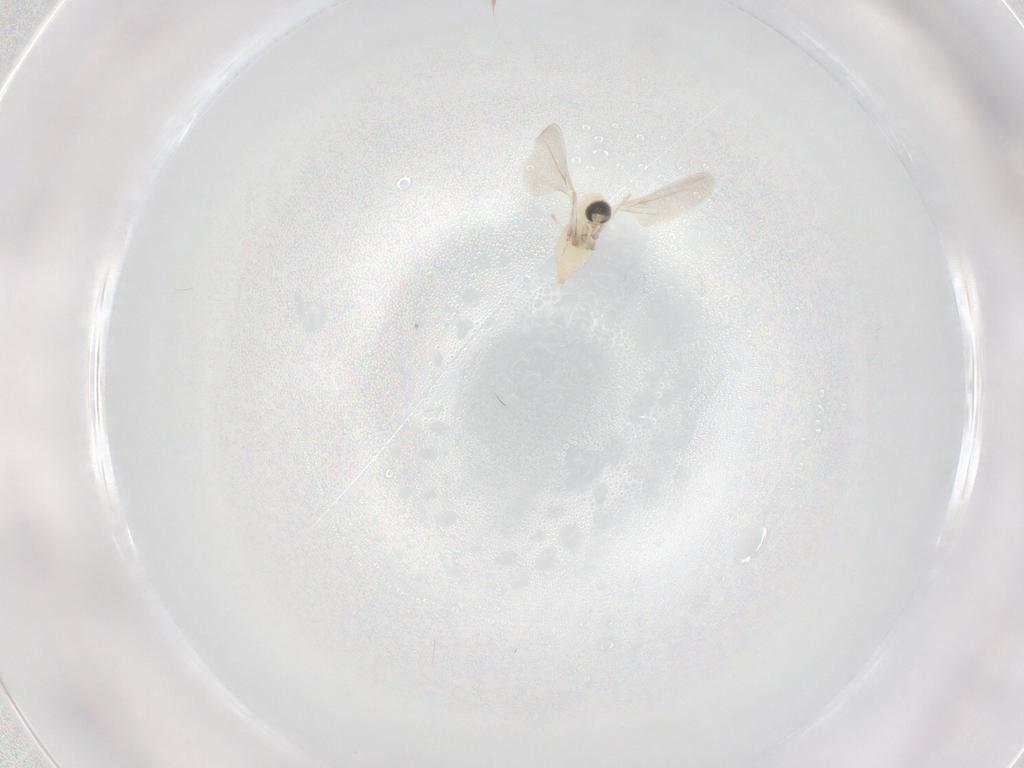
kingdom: Animalia
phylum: Arthropoda
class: Insecta
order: Diptera
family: Cecidomyiidae
